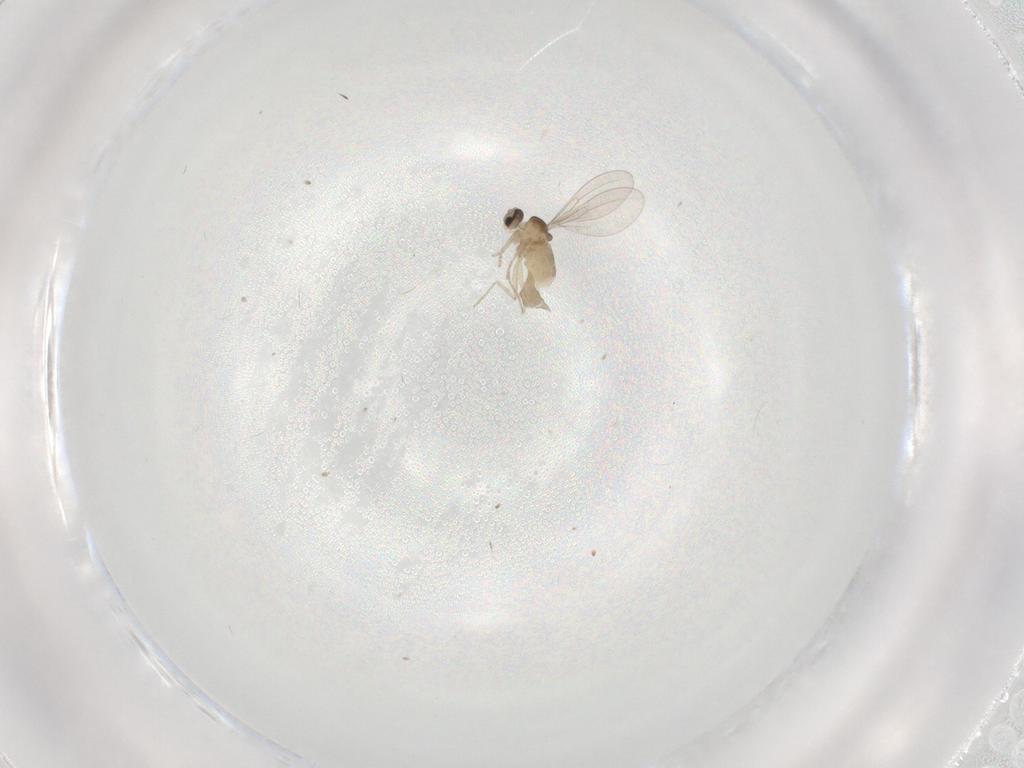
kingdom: Animalia
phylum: Arthropoda
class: Insecta
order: Diptera
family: Cecidomyiidae
